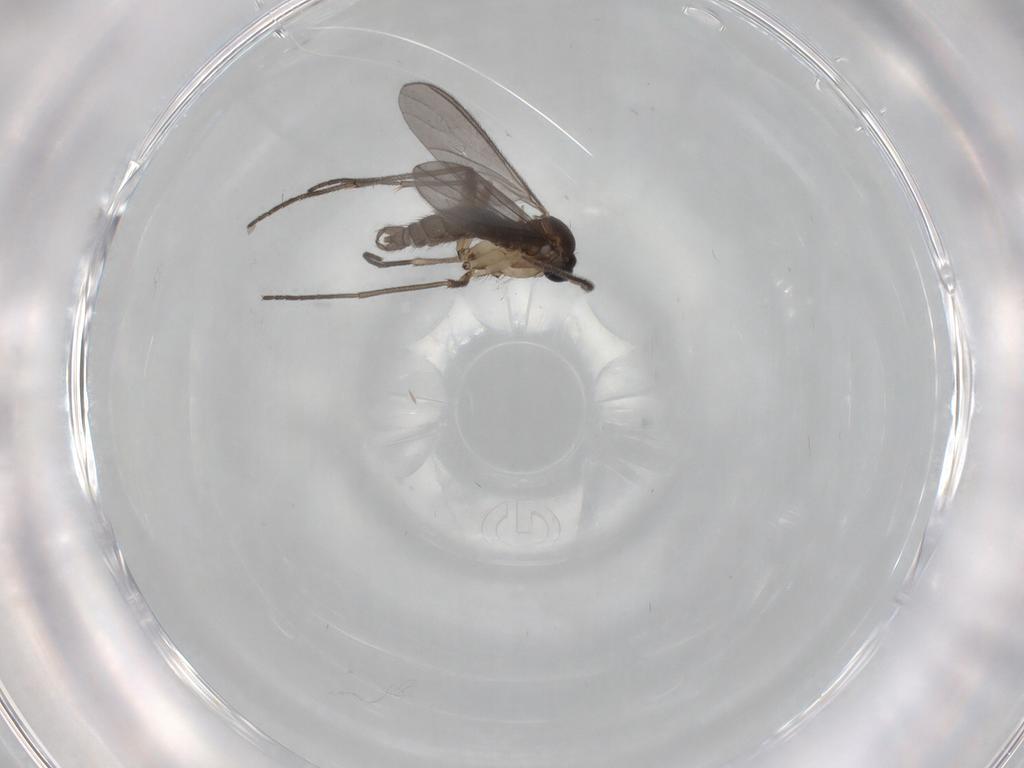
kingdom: Animalia
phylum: Arthropoda
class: Insecta
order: Diptera
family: Sciaridae
